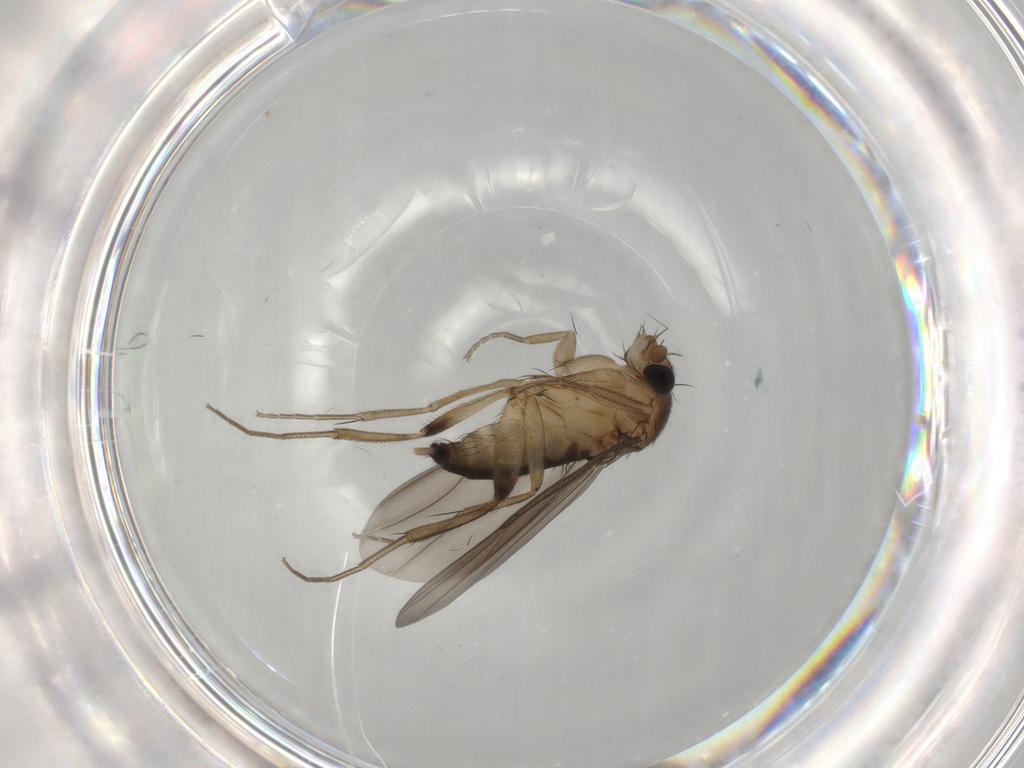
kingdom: Animalia
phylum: Arthropoda
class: Insecta
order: Diptera
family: Phoridae
